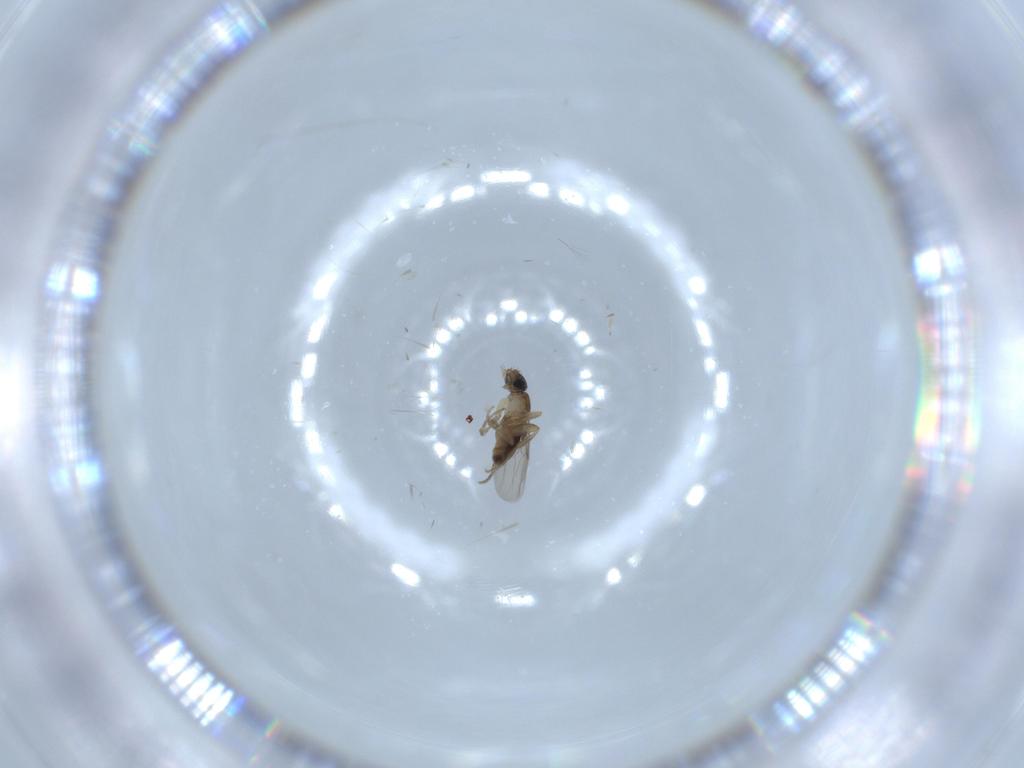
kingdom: Animalia
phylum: Arthropoda
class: Insecta
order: Diptera
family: Phoridae
